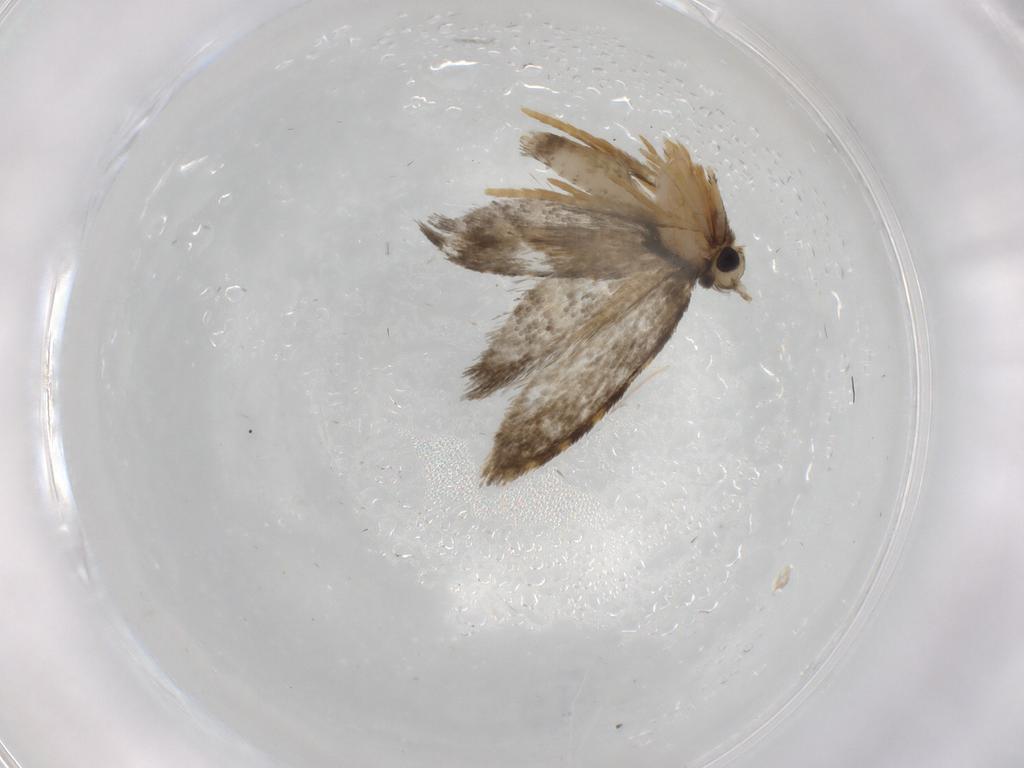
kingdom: Animalia
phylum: Arthropoda
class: Insecta
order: Lepidoptera
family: Psychidae
